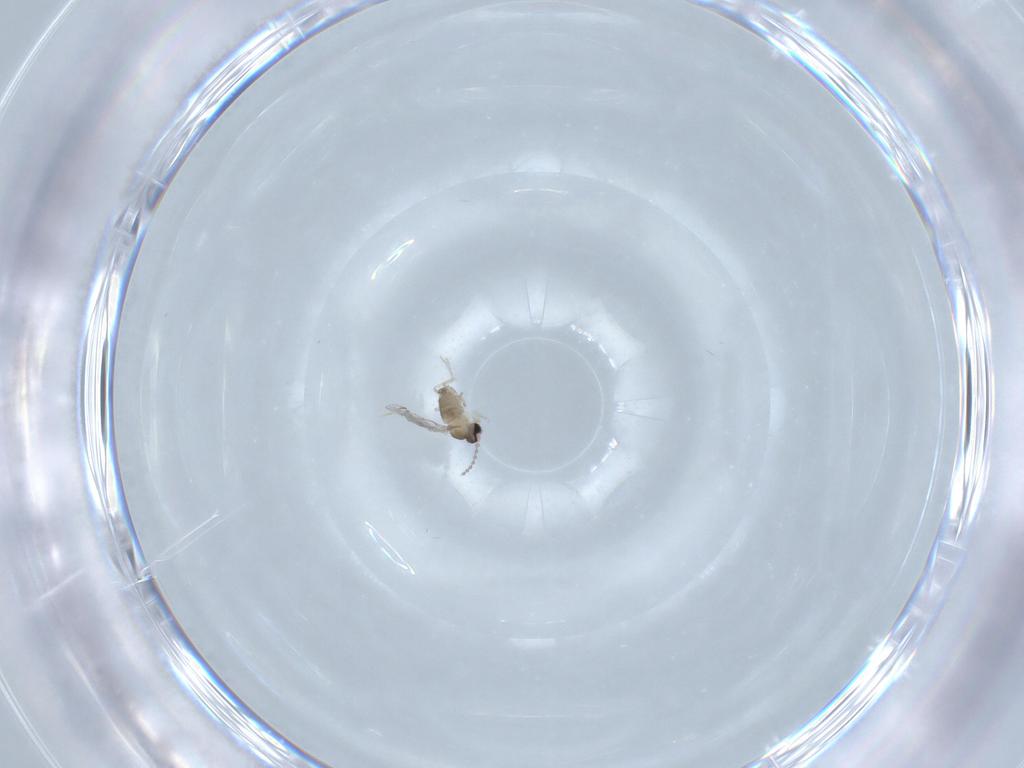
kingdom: Animalia
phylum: Arthropoda
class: Insecta
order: Diptera
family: Cecidomyiidae
